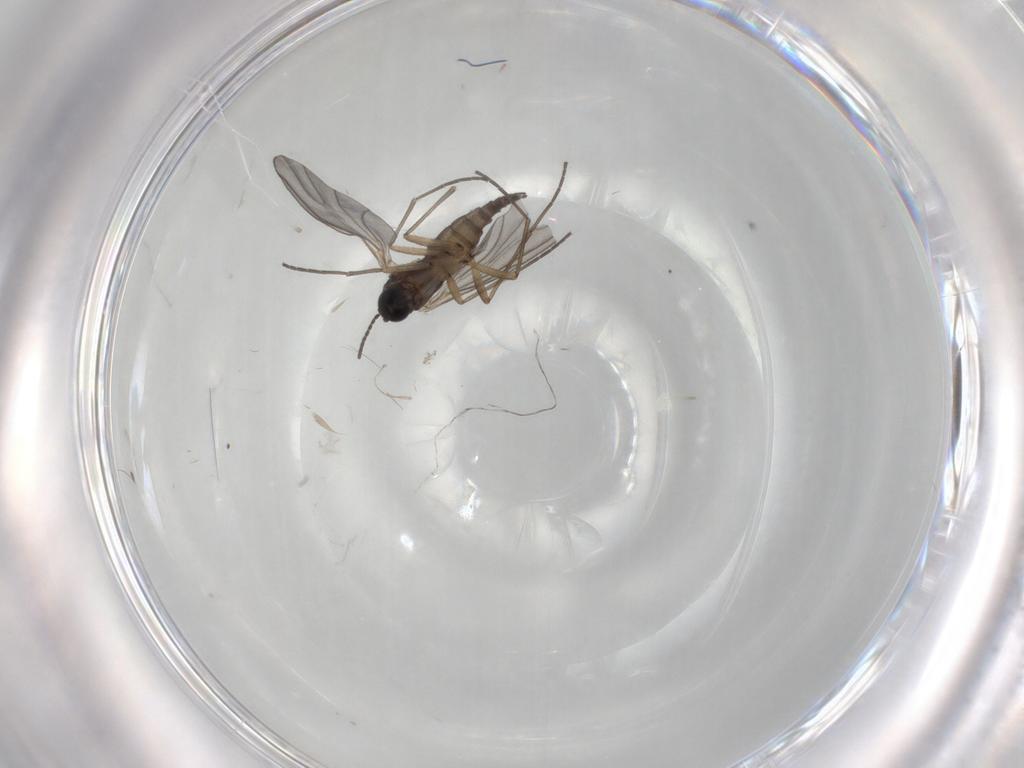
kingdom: Animalia
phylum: Arthropoda
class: Insecta
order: Diptera
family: Sciaridae
